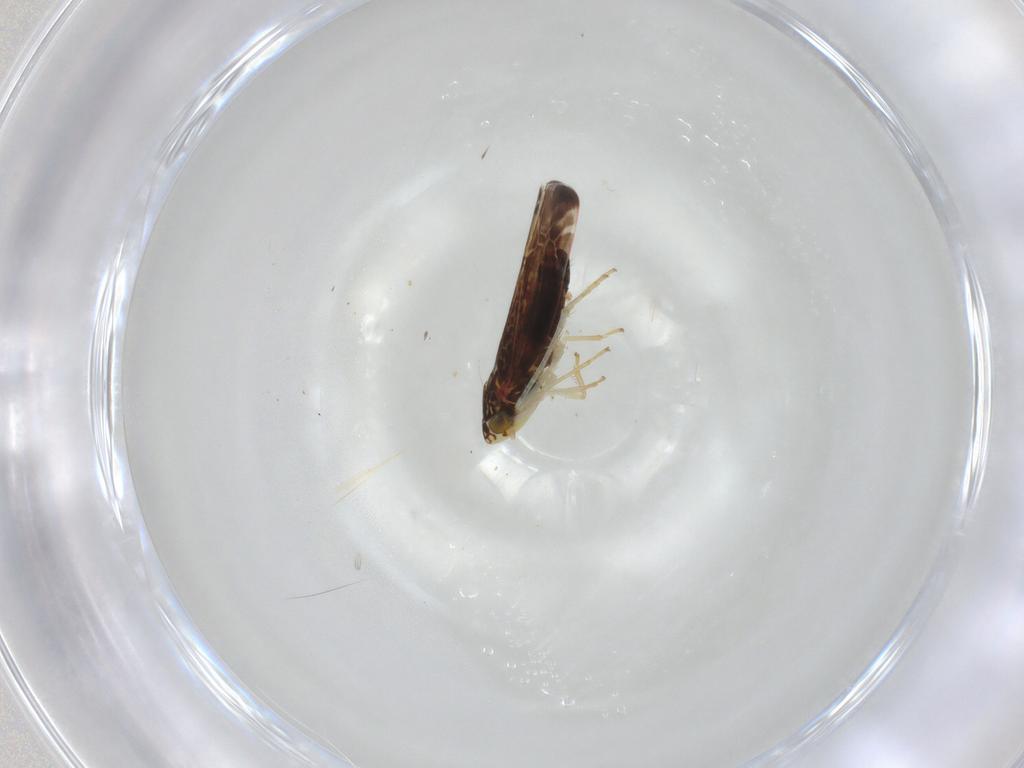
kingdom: Animalia
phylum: Arthropoda
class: Insecta
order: Hemiptera
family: Cicadellidae
